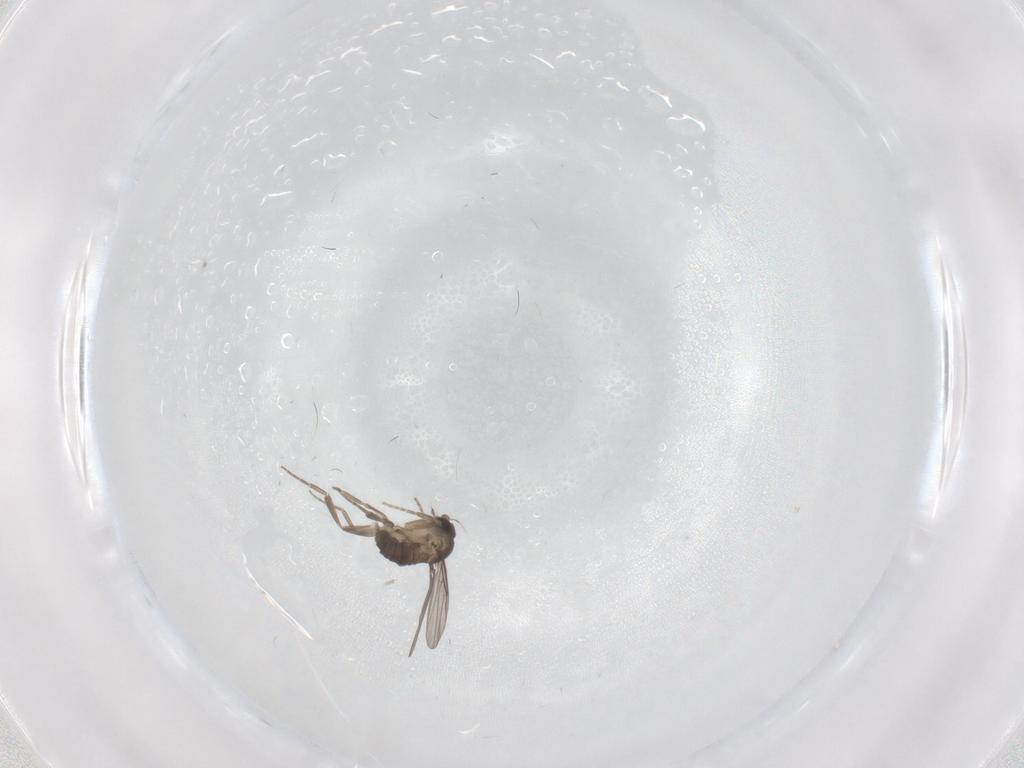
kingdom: Animalia
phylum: Arthropoda
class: Insecta
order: Diptera
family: Phoridae
